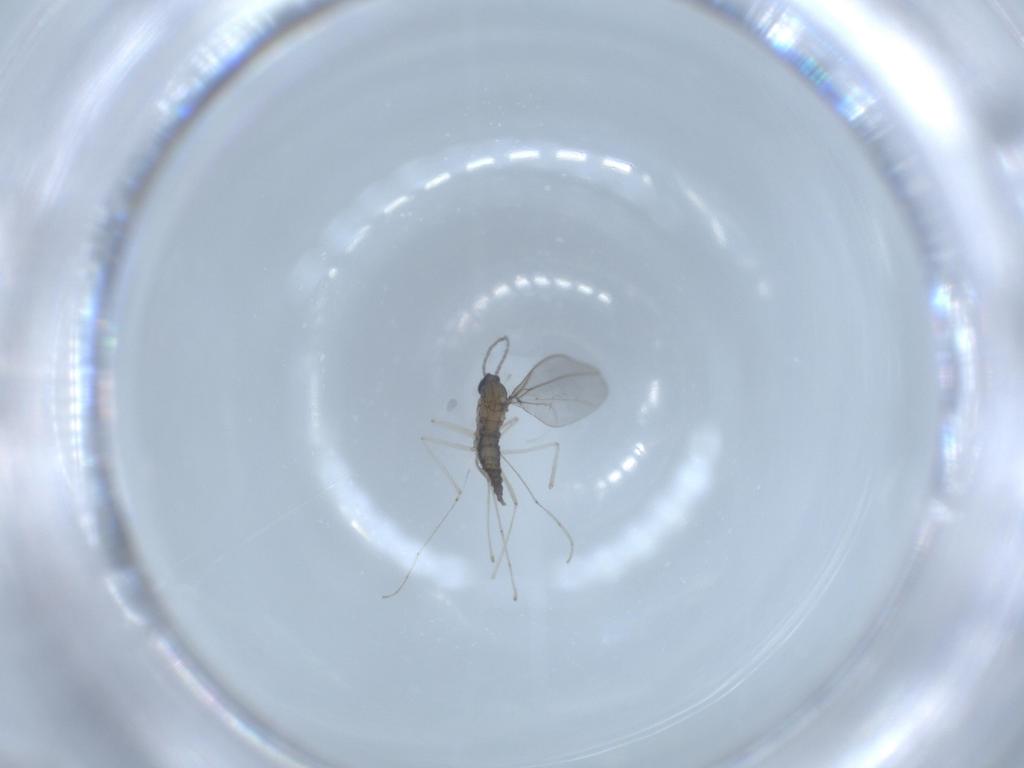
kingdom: Animalia
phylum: Arthropoda
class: Insecta
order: Diptera
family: Cecidomyiidae
